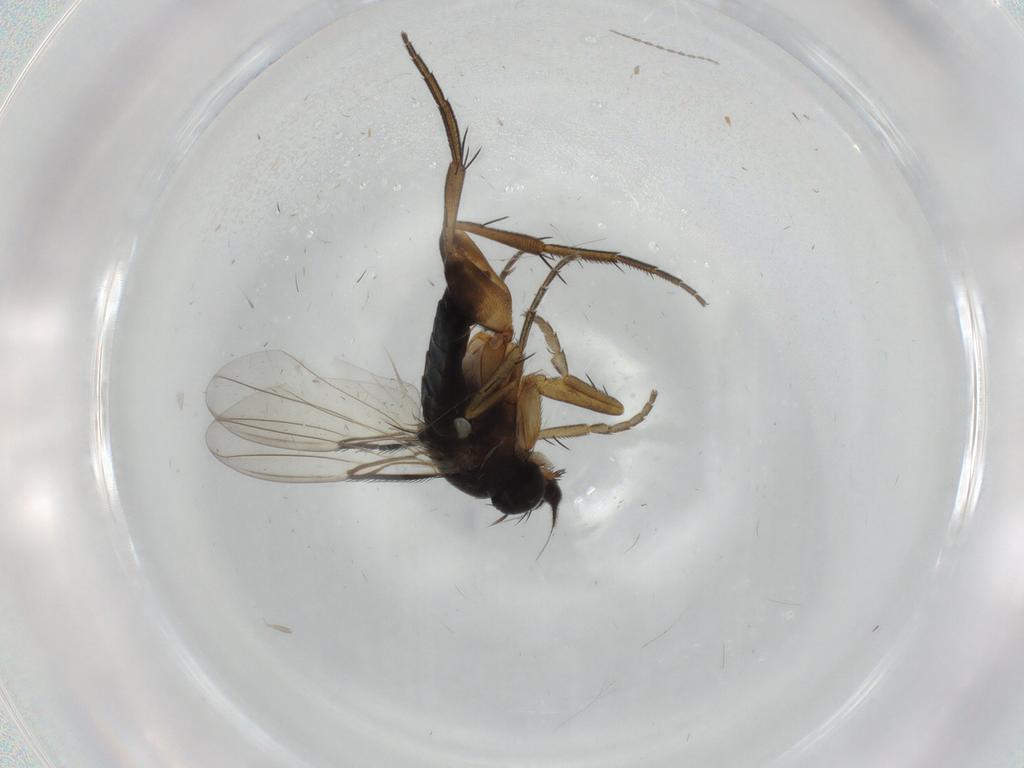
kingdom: Animalia
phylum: Arthropoda
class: Insecta
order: Diptera
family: Phoridae
